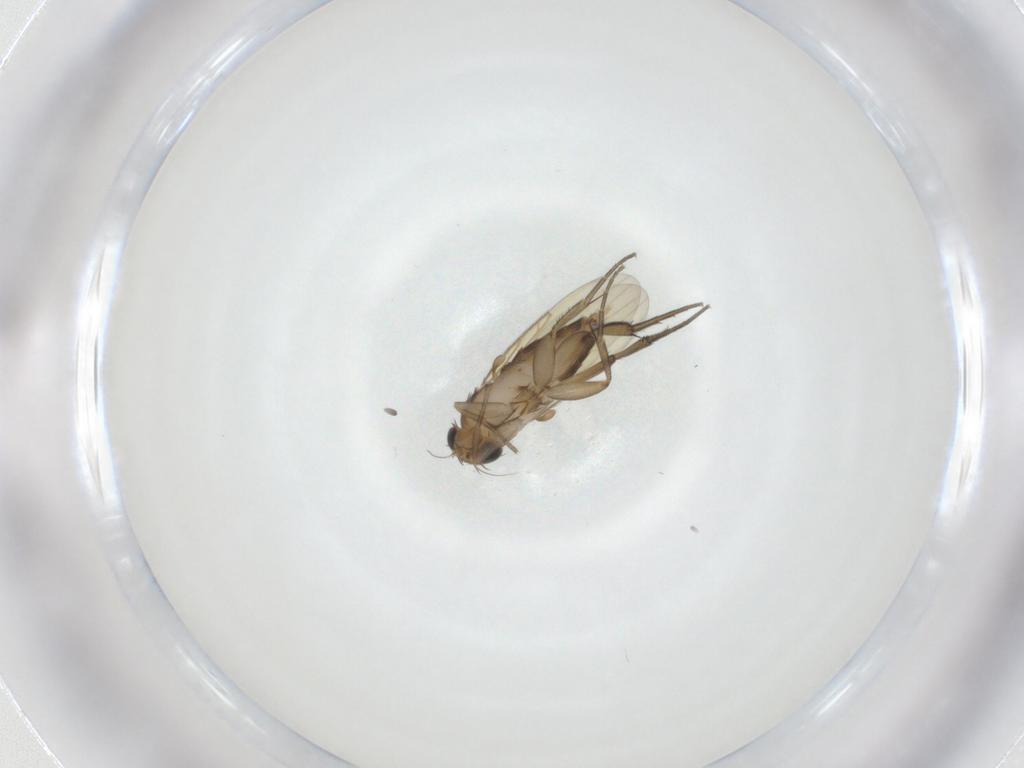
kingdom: Animalia
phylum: Arthropoda
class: Insecta
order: Diptera
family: Phoridae
